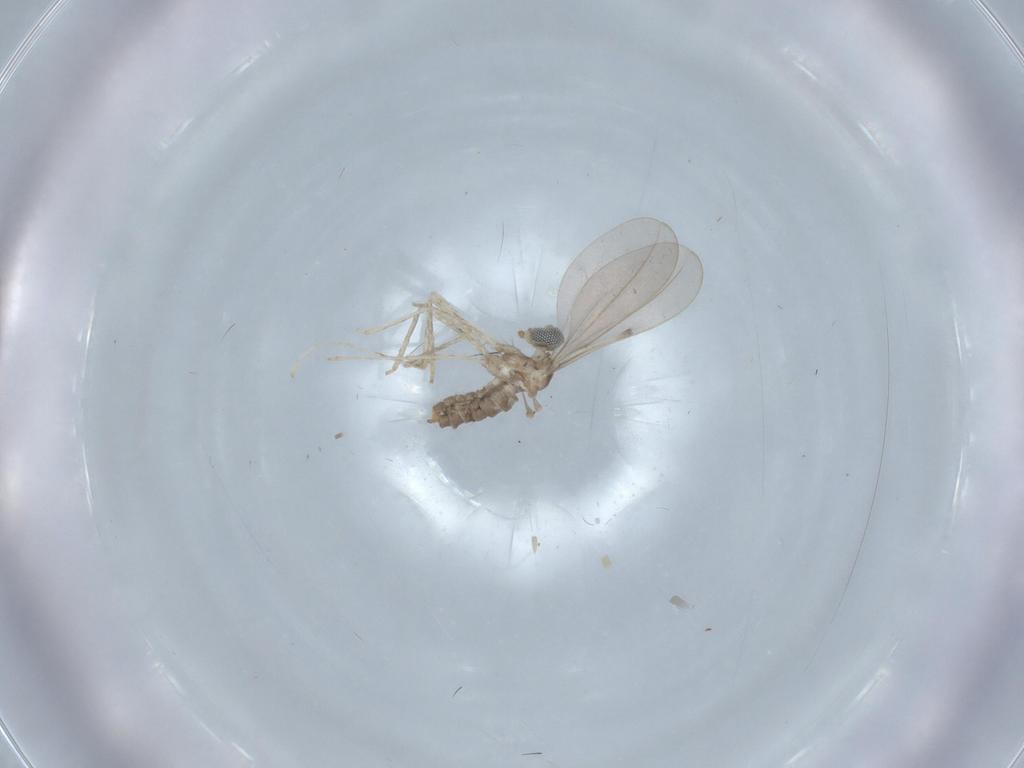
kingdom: Animalia
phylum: Arthropoda
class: Insecta
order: Diptera
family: Cecidomyiidae
